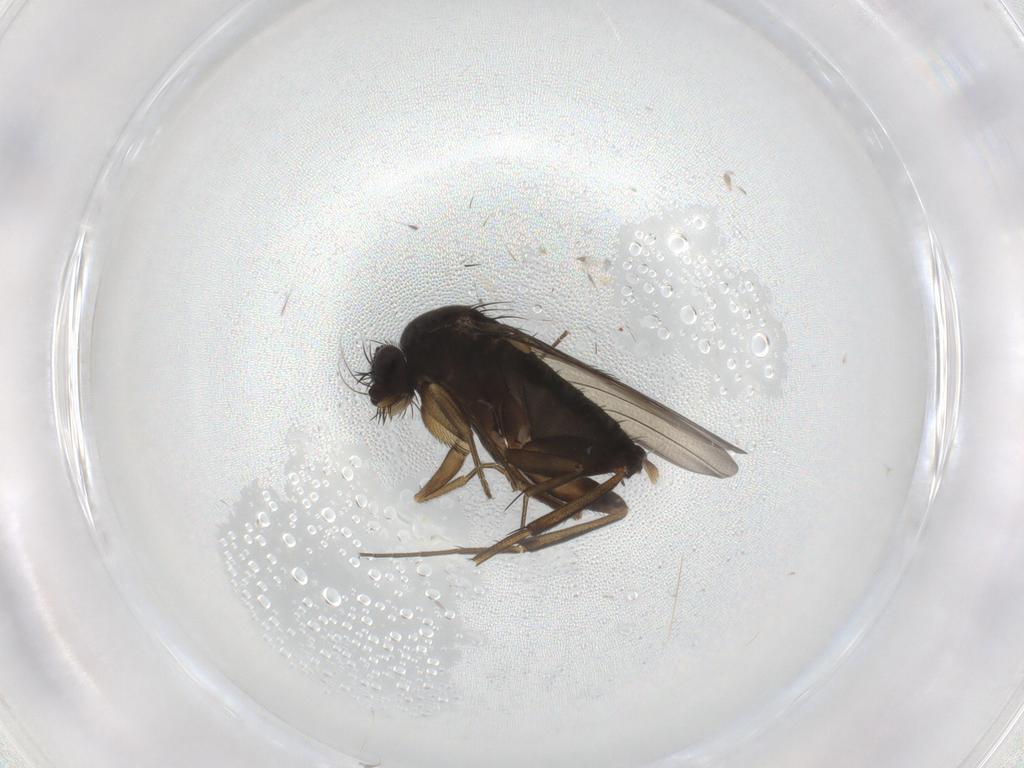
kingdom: Animalia
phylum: Arthropoda
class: Insecta
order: Diptera
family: Phoridae
